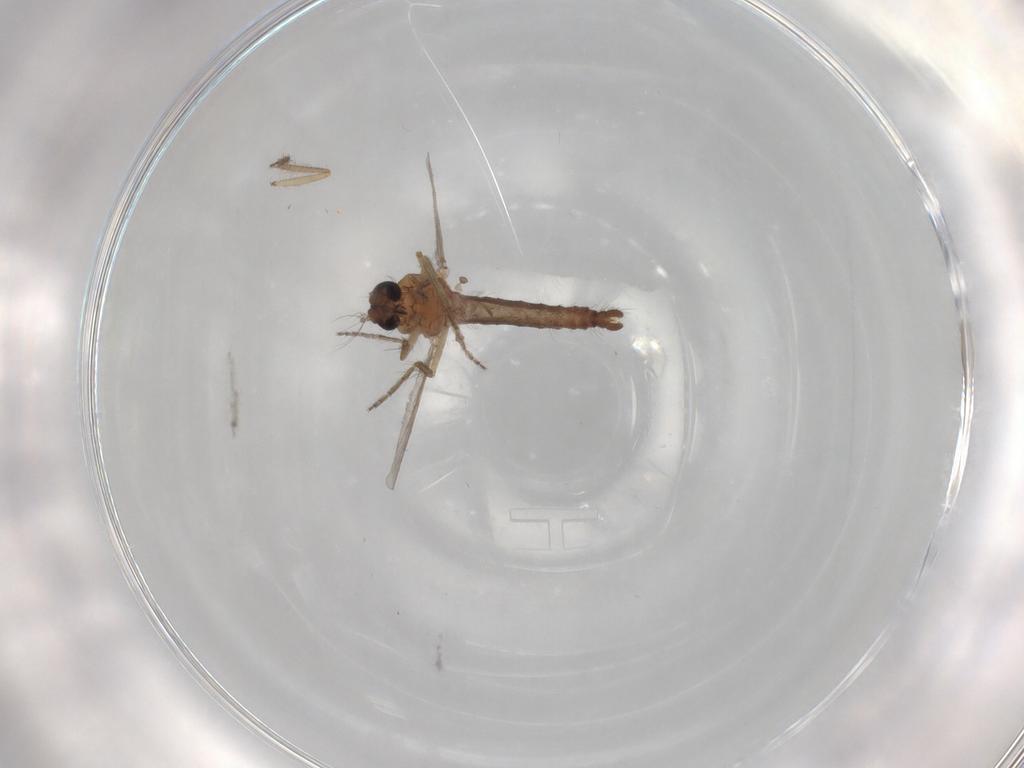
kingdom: Animalia
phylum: Arthropoda
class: Insecta
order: Diptera
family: Ceratopogonidae
